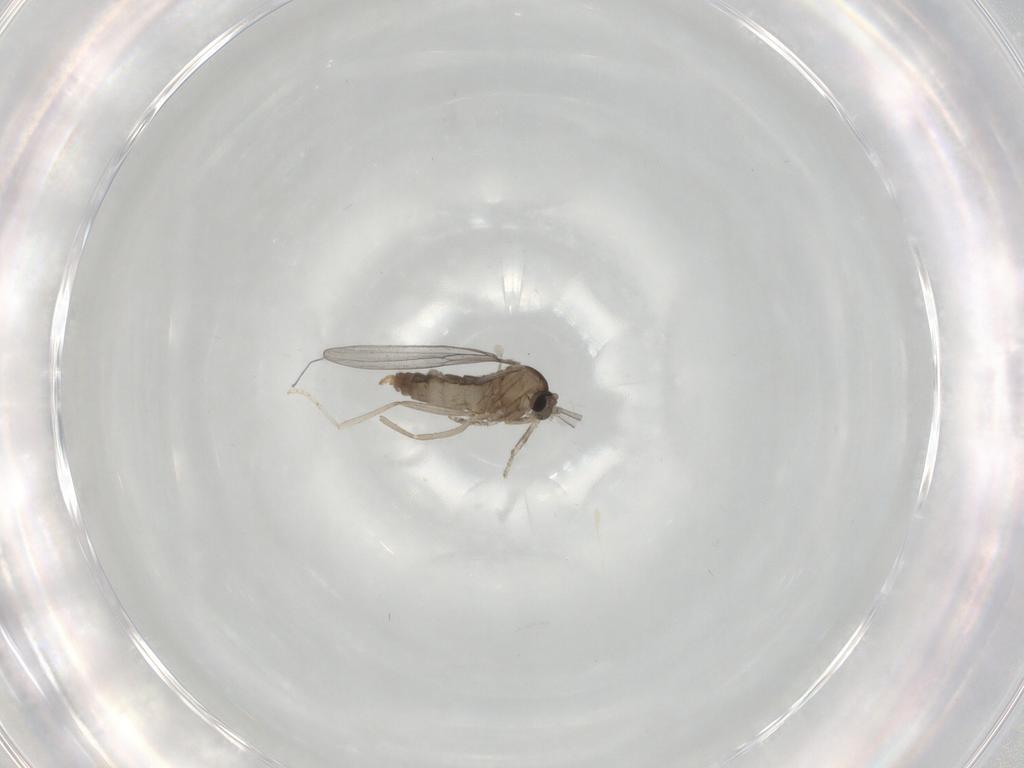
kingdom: Animalia
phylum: Arthropoda
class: Insecta
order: Diptera
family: Cecidomyiidae
